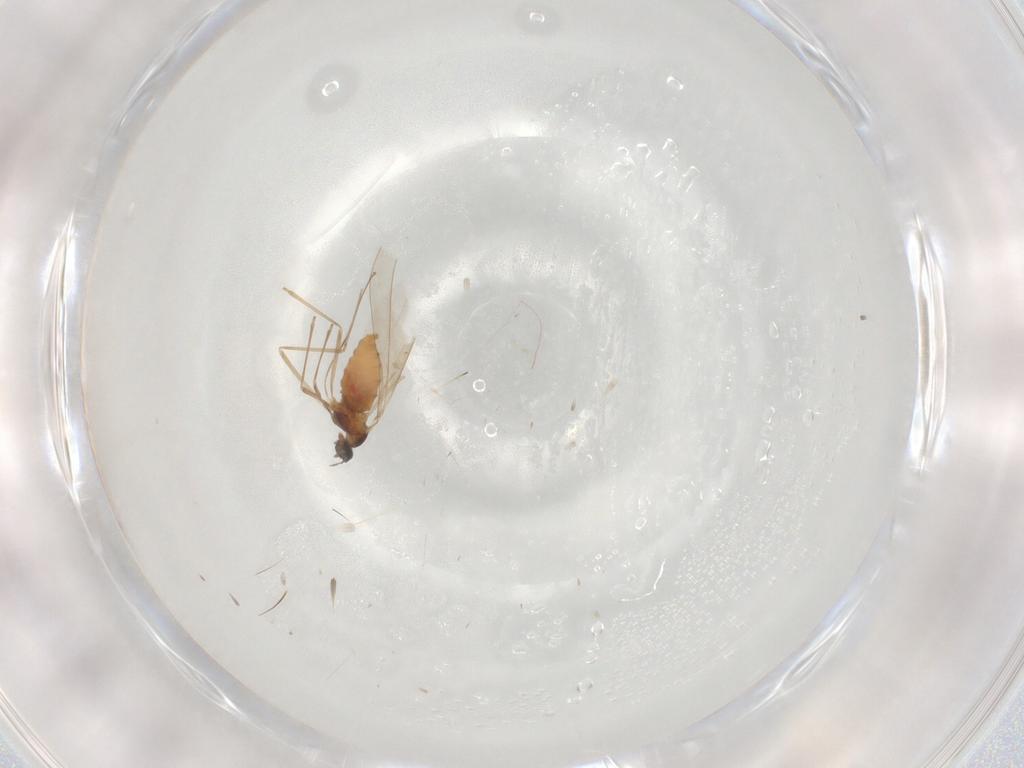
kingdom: Animalia
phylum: Arthropoda
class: Insecta
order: Diptera
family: Cecidomyiidae
